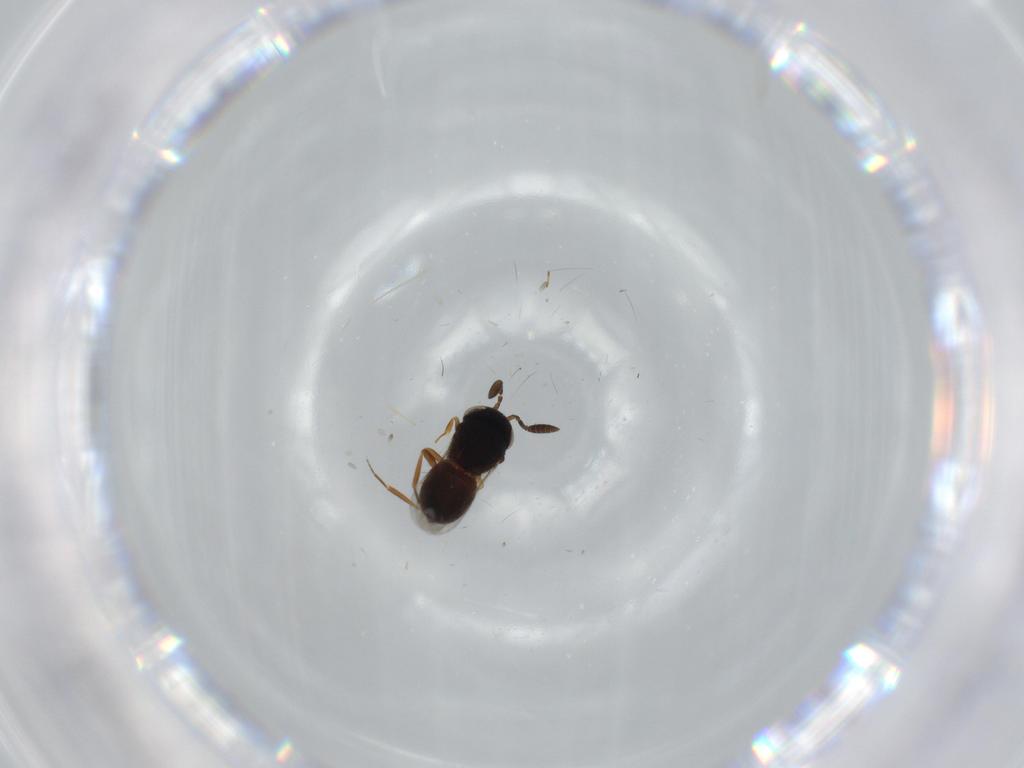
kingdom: Animalia
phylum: Arthropoda
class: Insecta
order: Hymenoptera
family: Scelionidae
